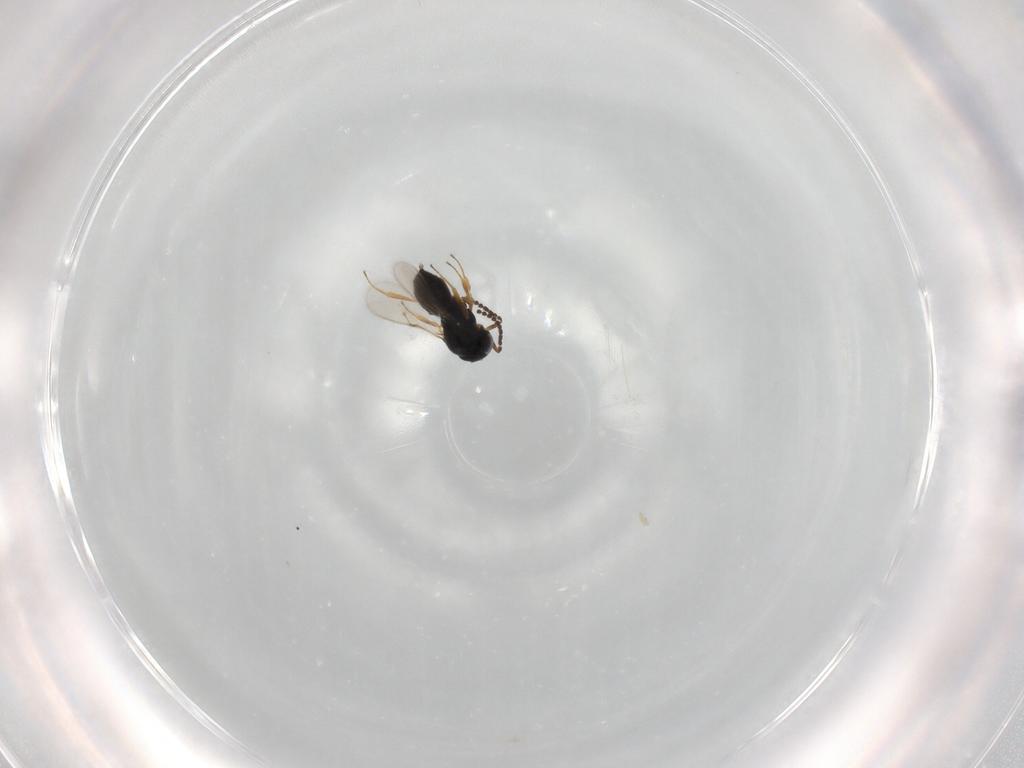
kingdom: Animalia
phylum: Arthropoda
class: Insecta
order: Hymenoptera
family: Scelionidae
